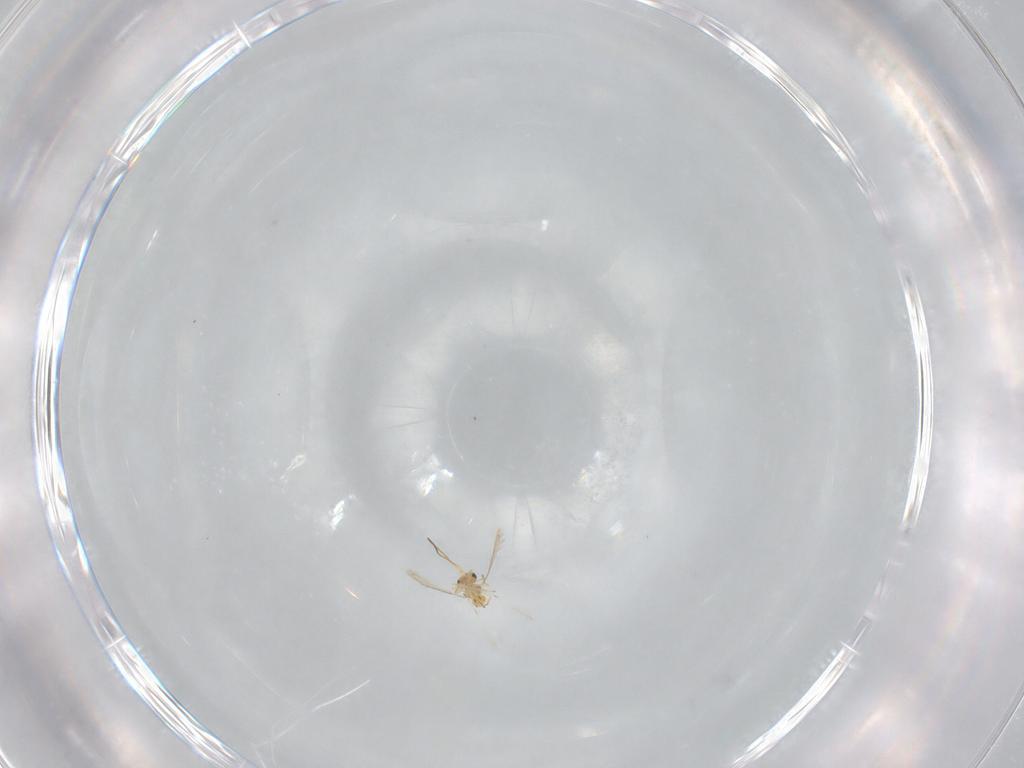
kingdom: Animalia
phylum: Arthropoda
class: Insecta
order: Hymenoptera
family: Mymaridae
